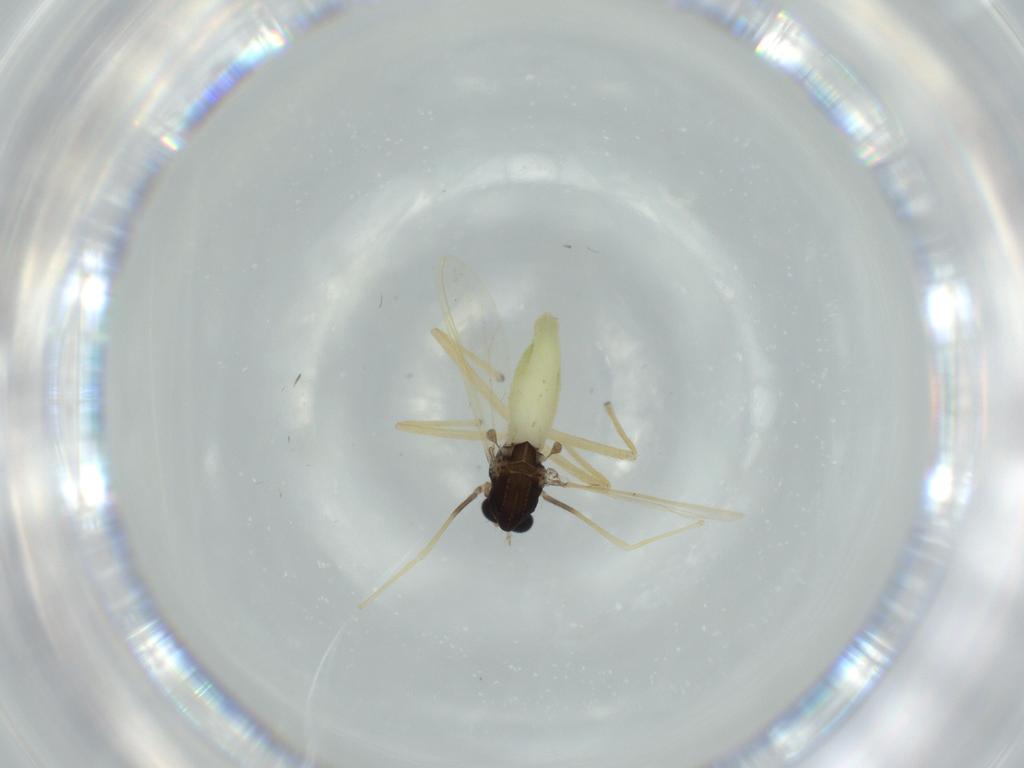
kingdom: Animalia
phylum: Arthropoda
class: Insecta
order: Diptera
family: Chironomidae
